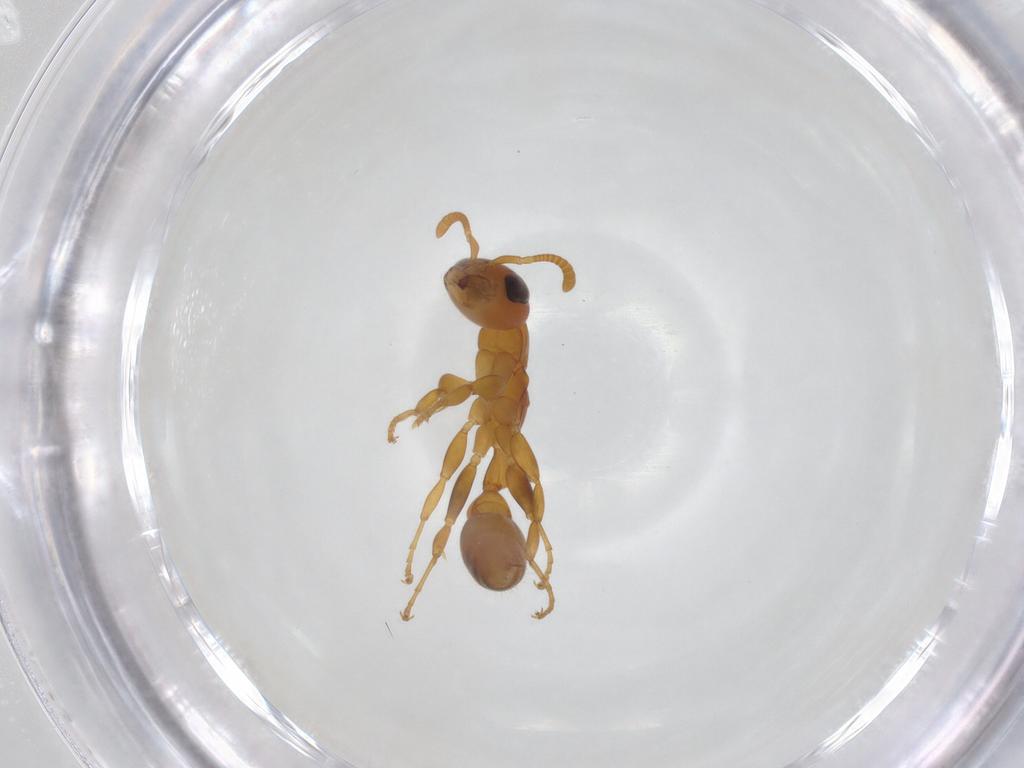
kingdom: Animalia
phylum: Arthropoda
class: Insecta
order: Hymenoptera
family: Formicidae
